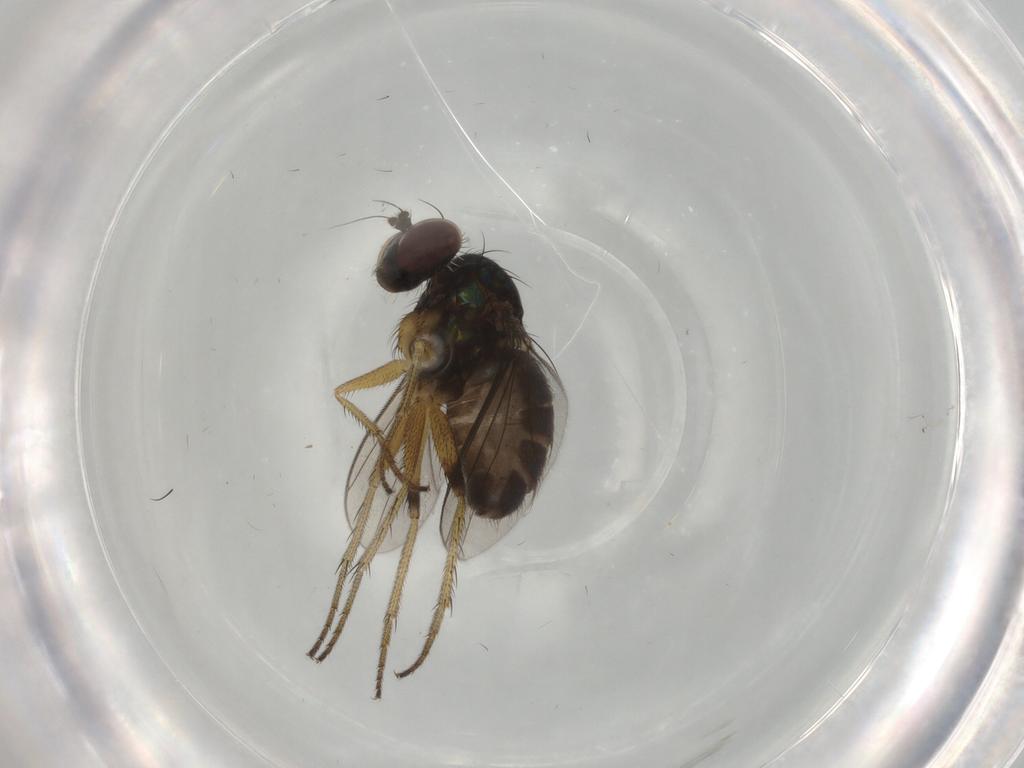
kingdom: Animalia
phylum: Arthropoda
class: Insecta
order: Diptera
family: Dolichopodidae
